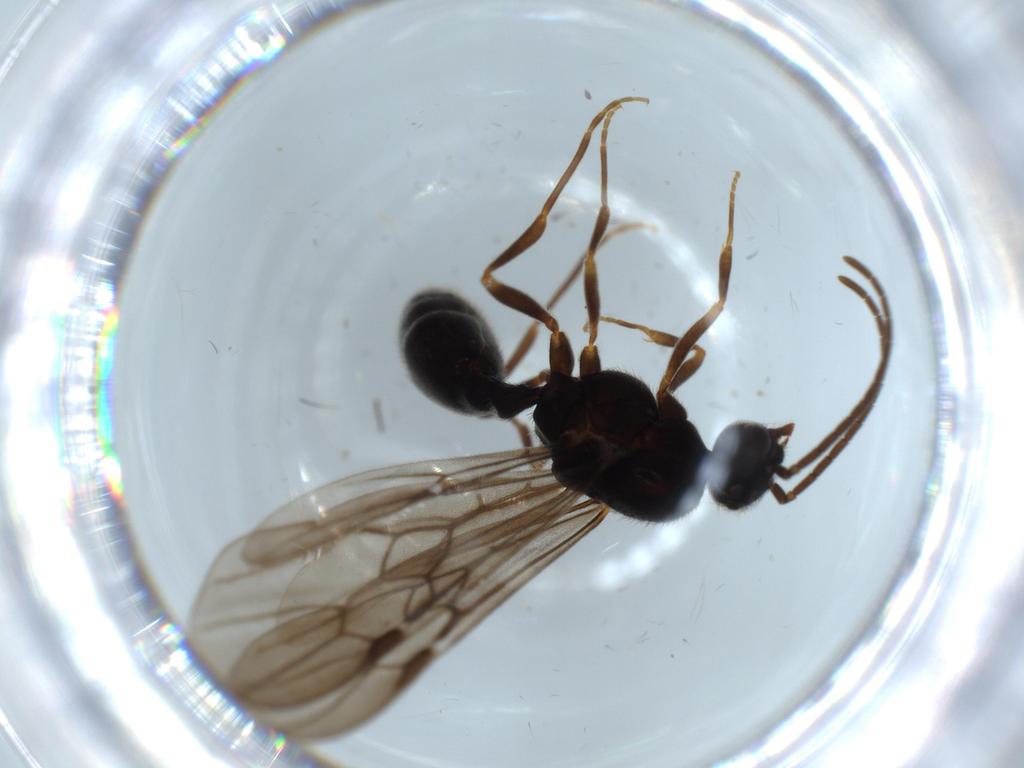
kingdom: Animalia
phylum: Arthropoda
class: Insecta
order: Hymenoptera
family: Formicidae
